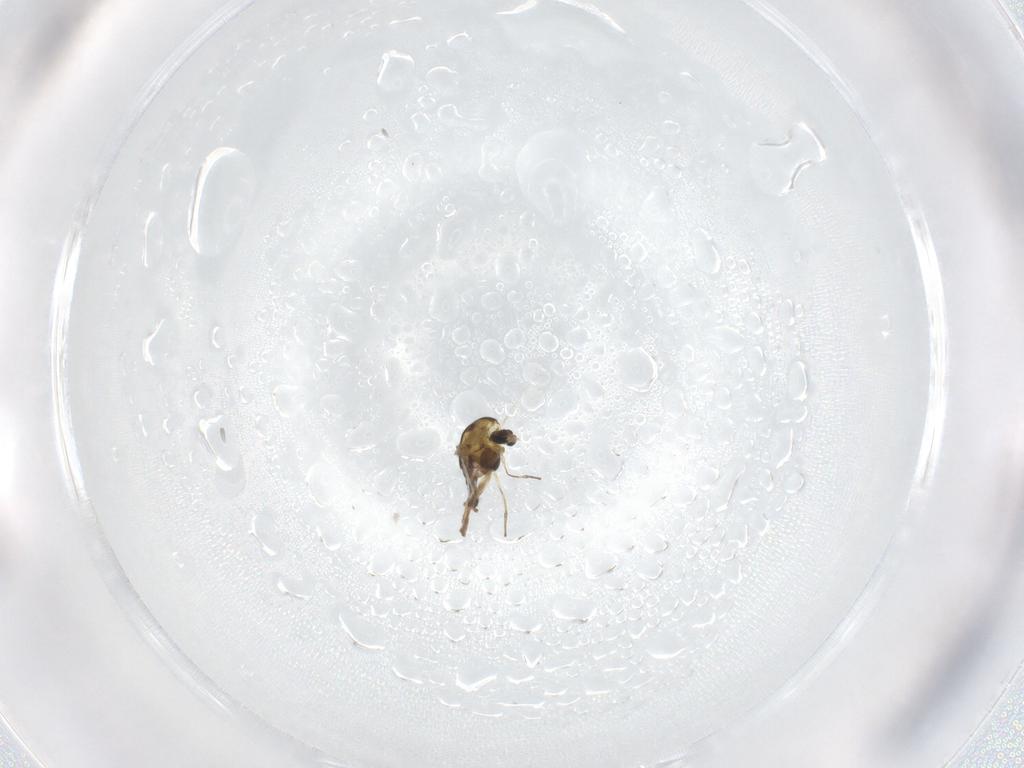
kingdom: Animalia
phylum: Arthropoda
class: Insecta
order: Diptera
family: Chironomidae
